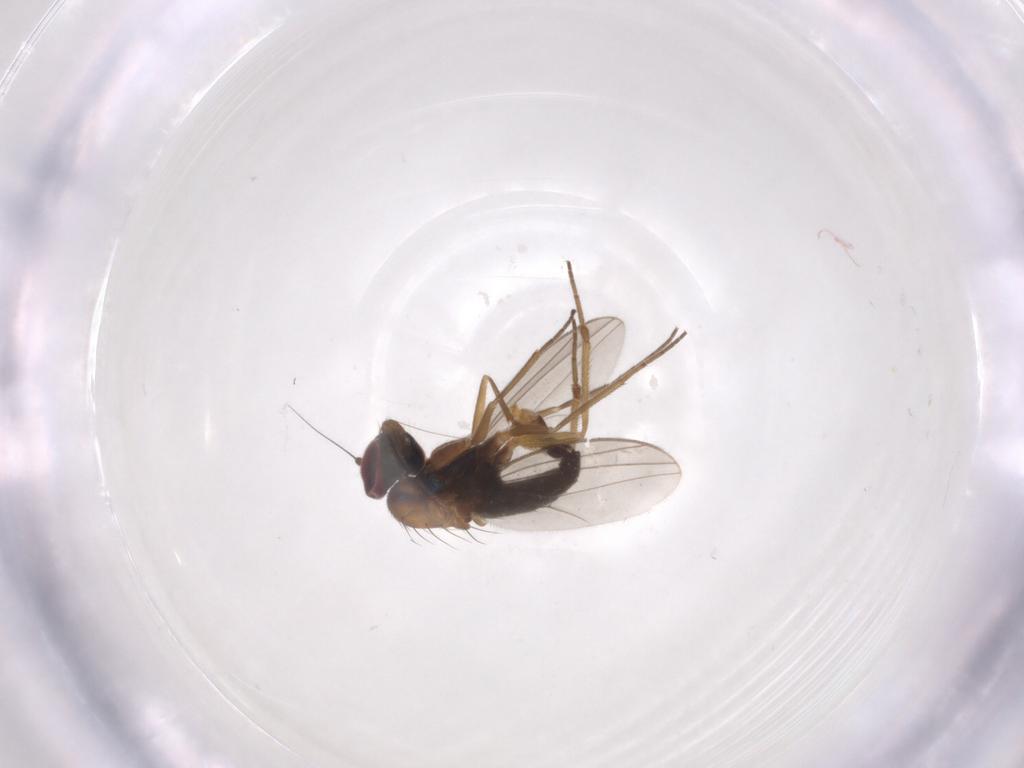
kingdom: Animalia
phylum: Arthropoda
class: Insecta
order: Diptera
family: Dolichopodidae
